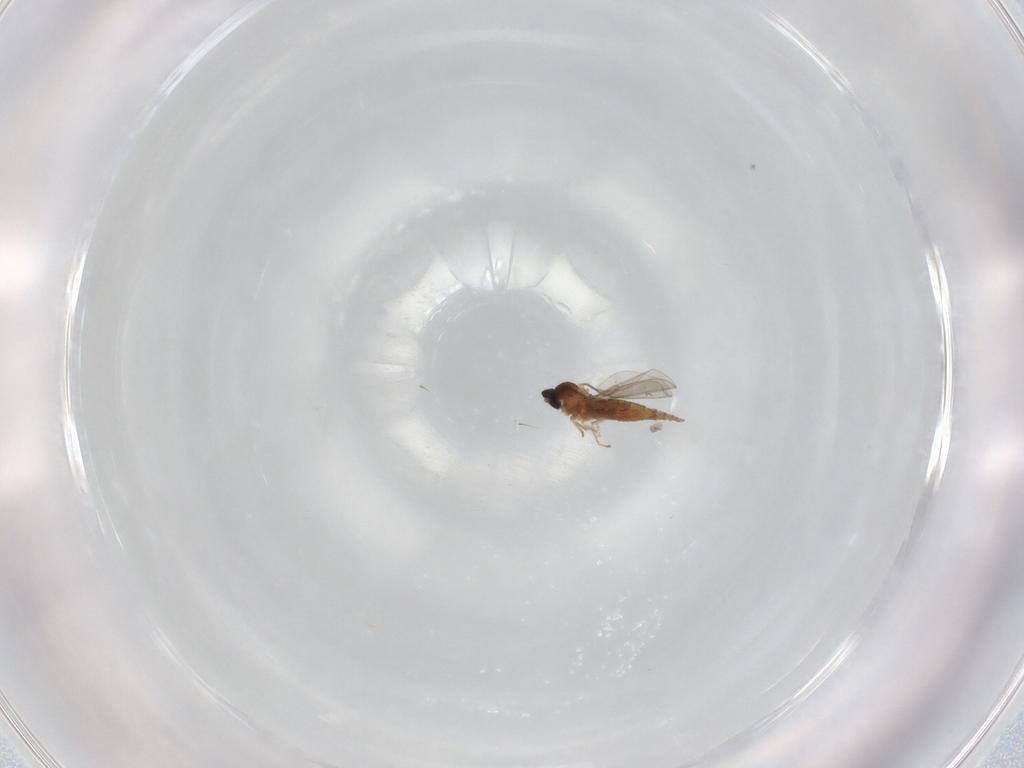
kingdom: Animalia
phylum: Arthropoda
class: Insecta
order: Diptera
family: Cecidomyiidae
